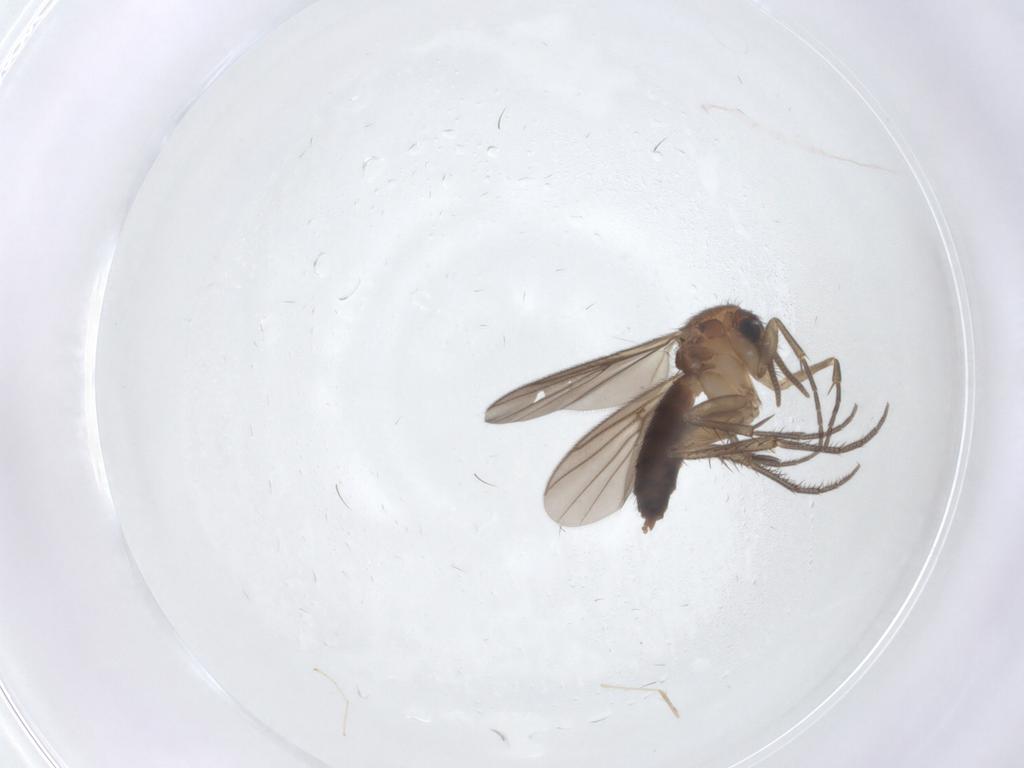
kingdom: Animalia
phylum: Arthropoda
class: Insecta
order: Diptera
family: Mycetophilidae
